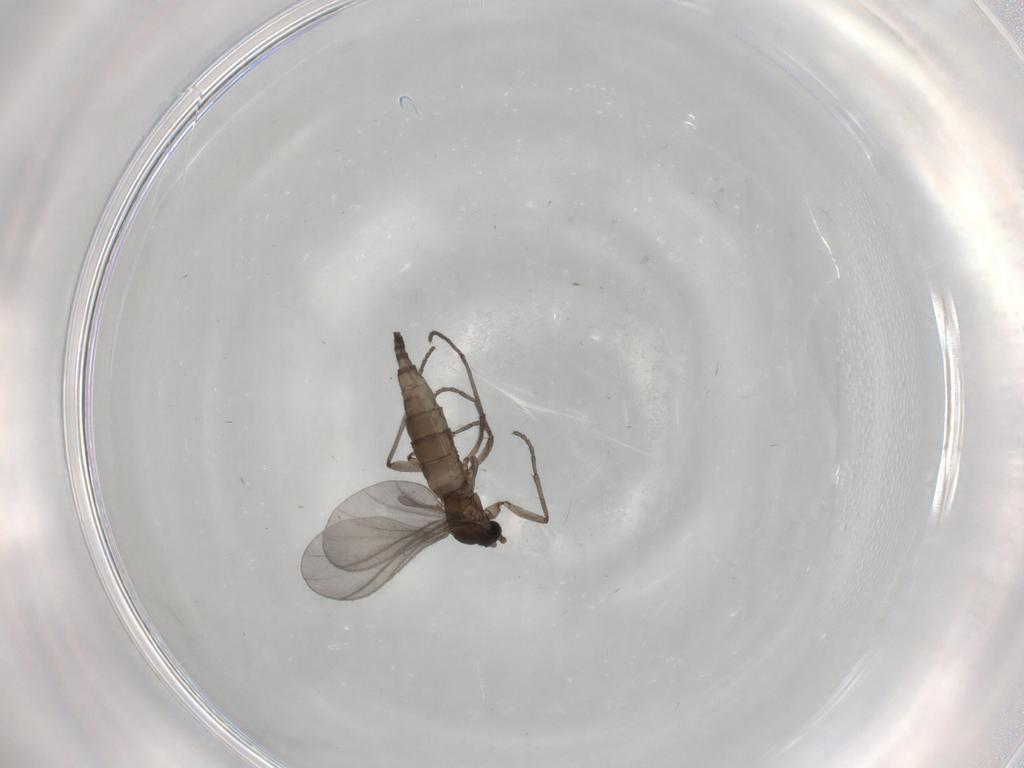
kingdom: Animalia
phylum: Arthropoda
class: Insecta
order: Diptera
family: Sciaridae
